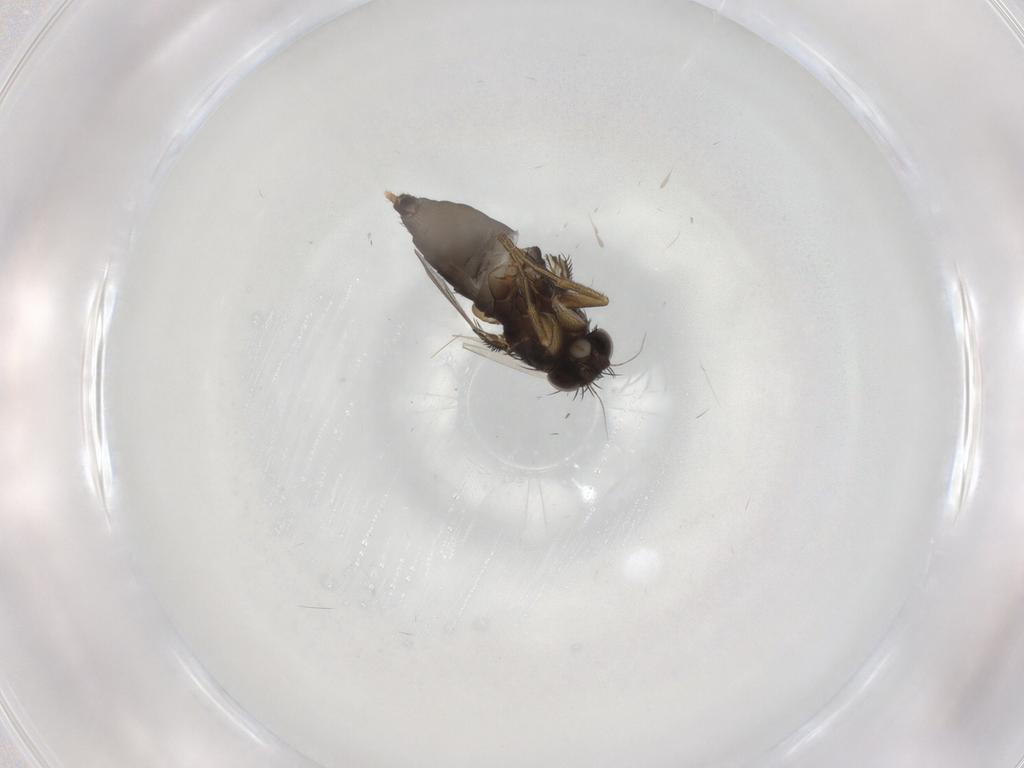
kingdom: Animalia
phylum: Arthropoda
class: Insecta
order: Diptera
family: Phoridae
